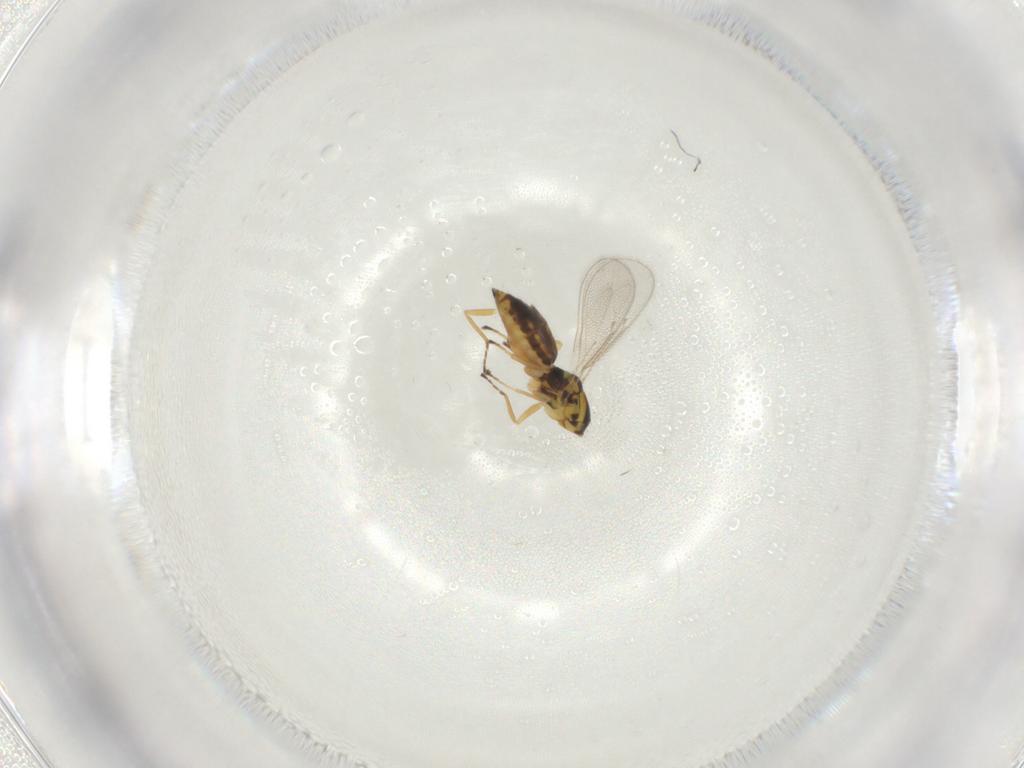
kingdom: Animalia
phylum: Arthropoda
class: Insecta
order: Hymenoptera
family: Eulophidae
